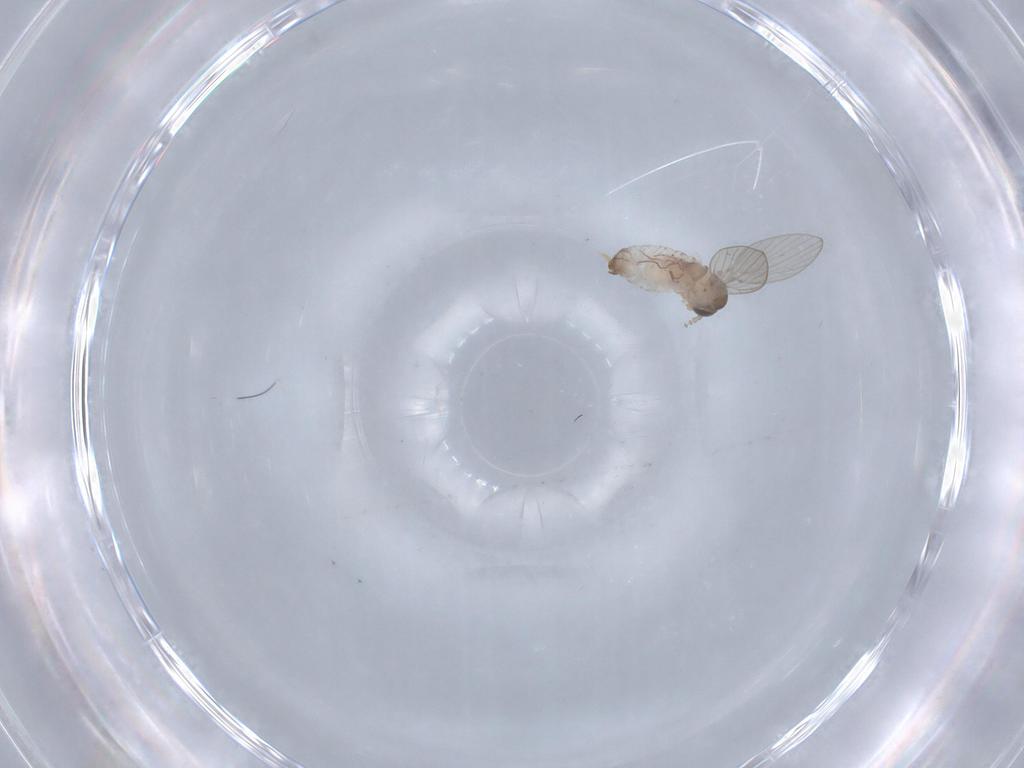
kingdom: Animalia
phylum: Arthropoda
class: Insecta
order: Diptera
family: Psychodidae
